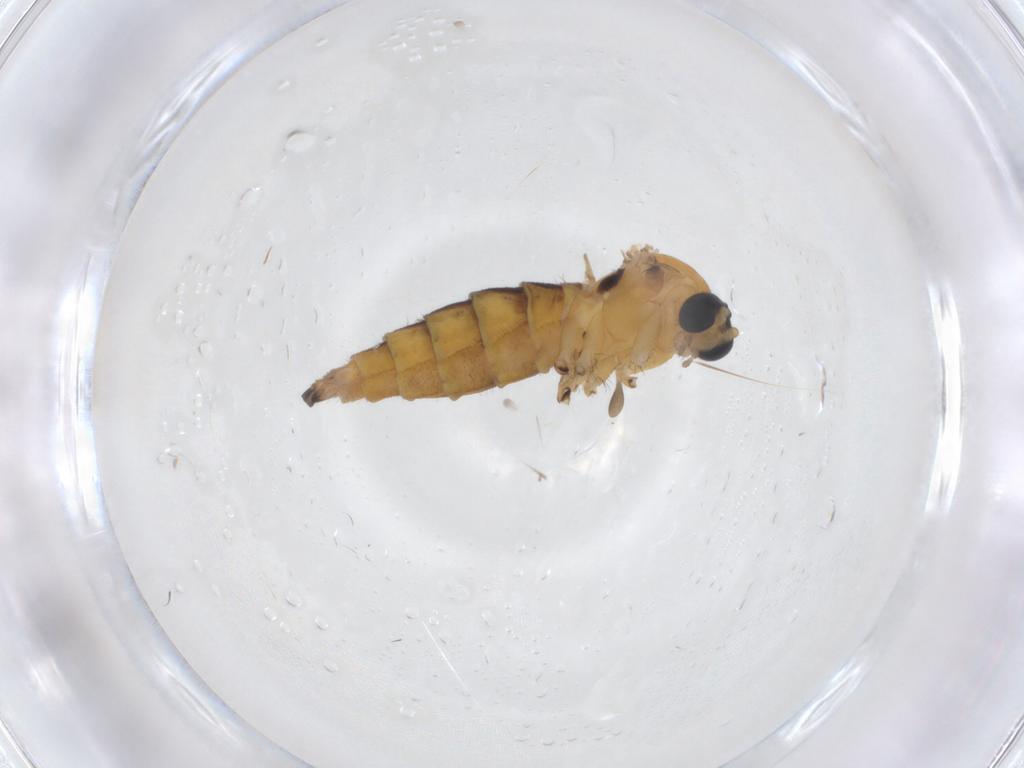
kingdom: Animalia
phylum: Arthropoda
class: Insecta
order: Diptera
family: Sciaridae
